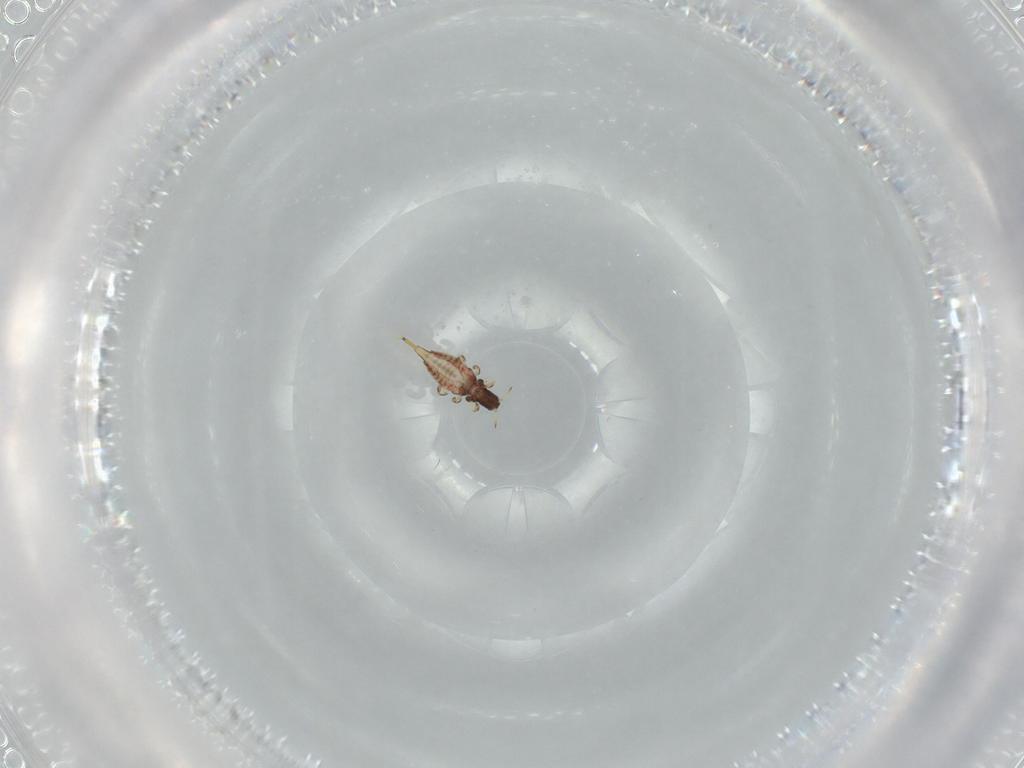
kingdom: Animalia
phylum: Arthropoda
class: Insecta
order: Thysanoptera
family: Phlaeothripidae
